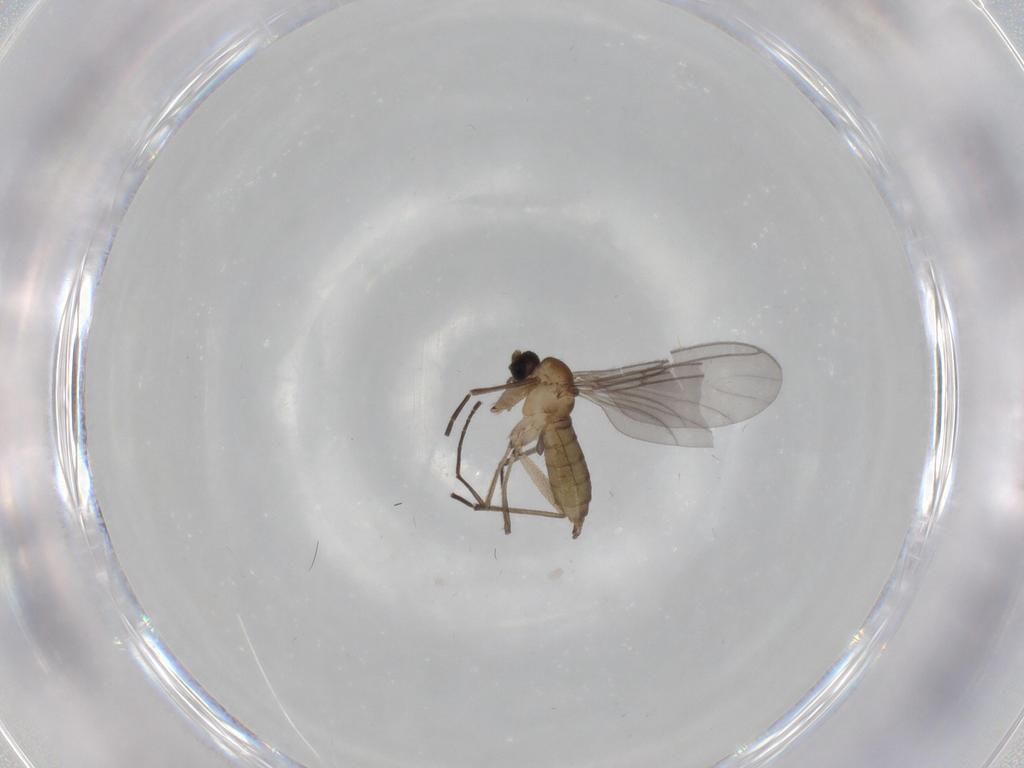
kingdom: Animalia
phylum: Arthropoda
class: Insecta
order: Diptera
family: Sciaridae
